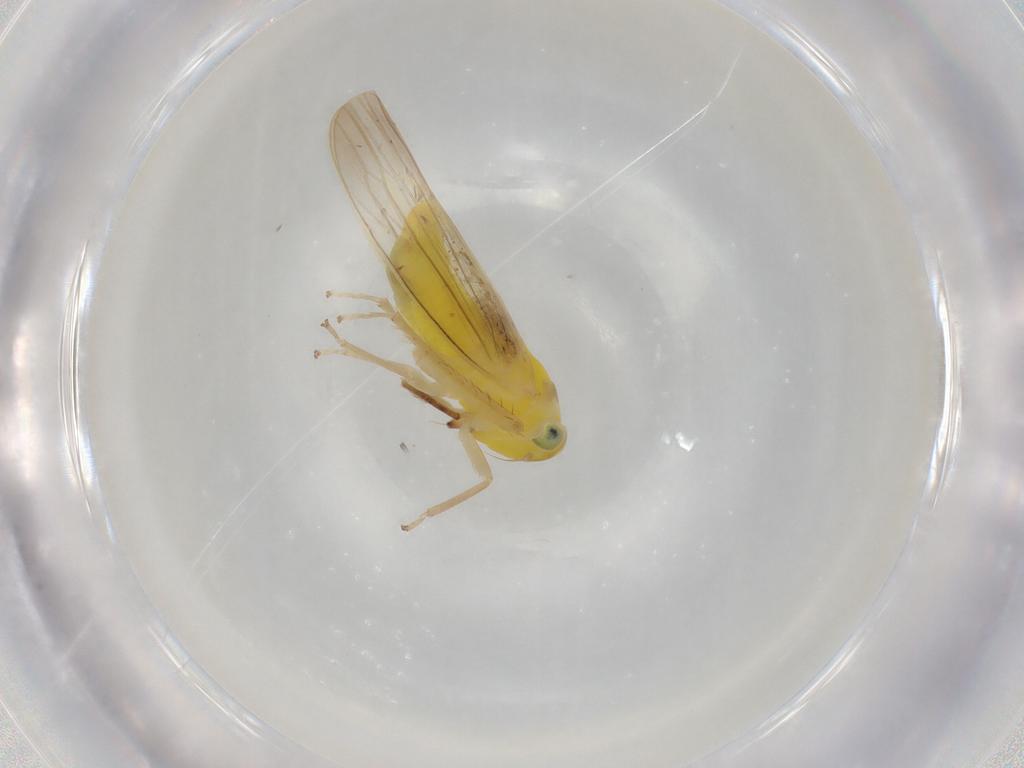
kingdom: Animalia
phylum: Arthropoda
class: Insecta
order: Hemiptera
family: Cicadellidae
